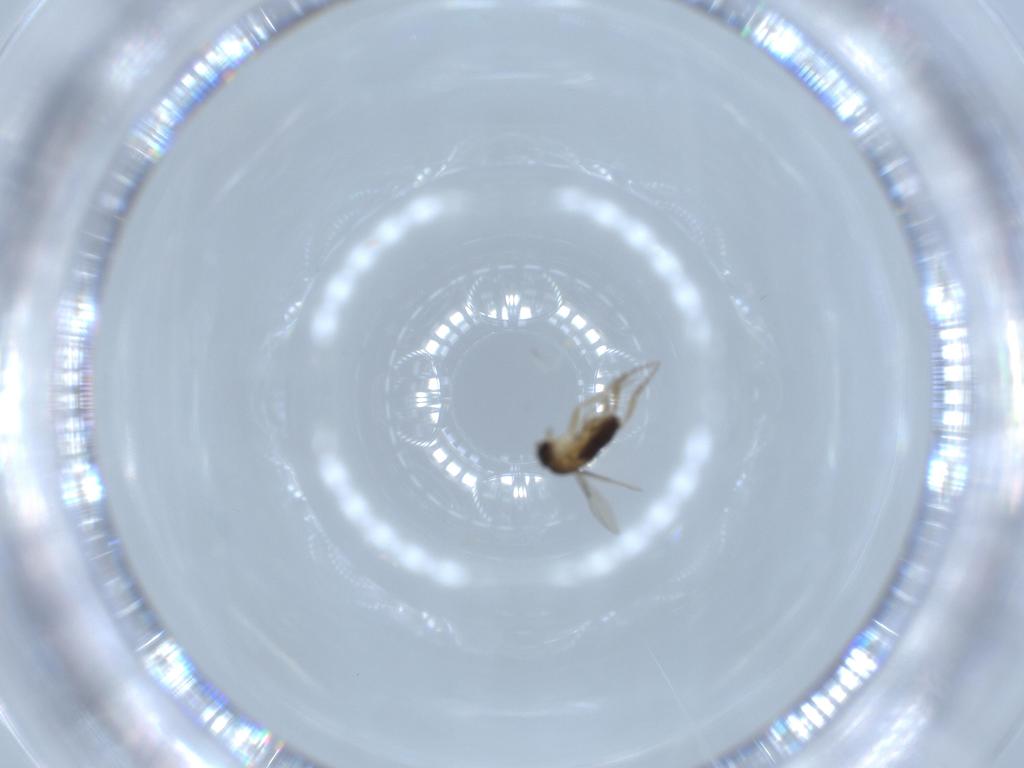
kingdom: Animalia
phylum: Arthropoda
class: Insecta
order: Diptera
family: Phoridae
